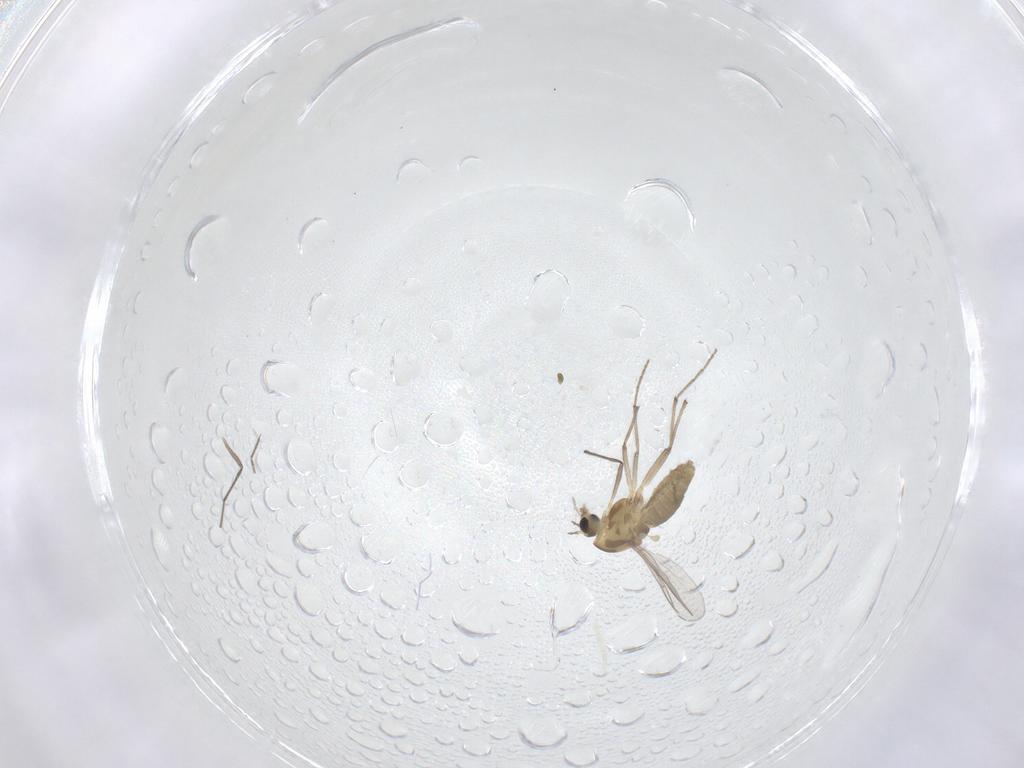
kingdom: Animalia
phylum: Arthropoda
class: Insecta
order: Diptera
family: Chironomidae
